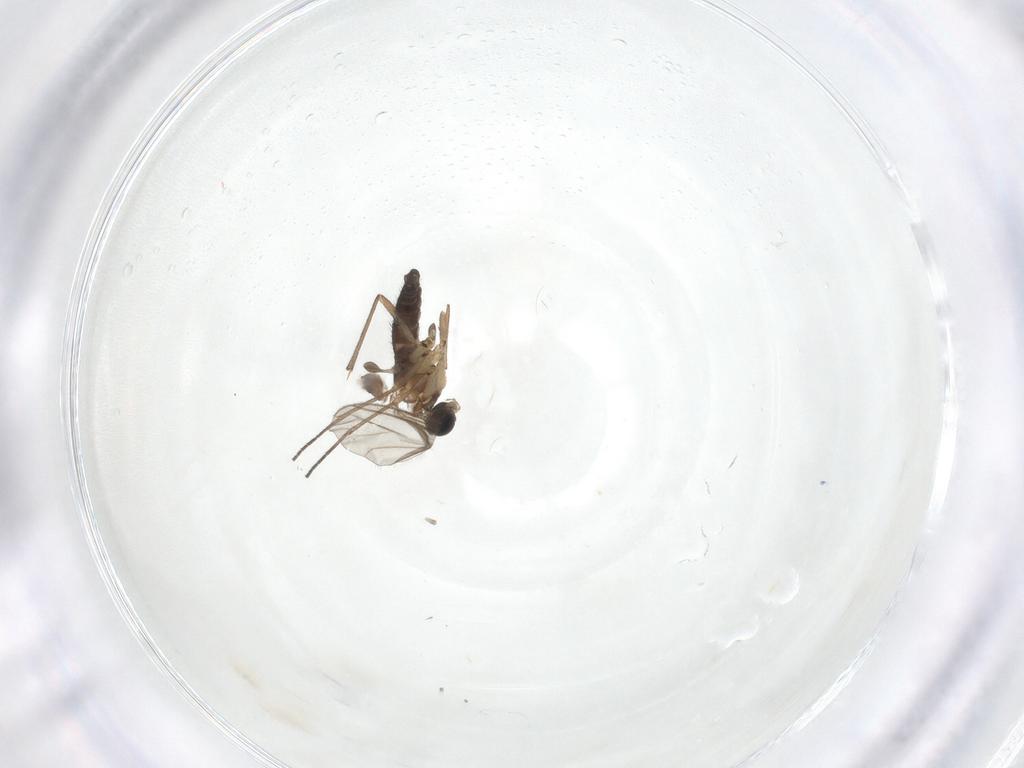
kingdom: Animalia
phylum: Arthropoda
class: Insecta
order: Diptera
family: Sciaridae
